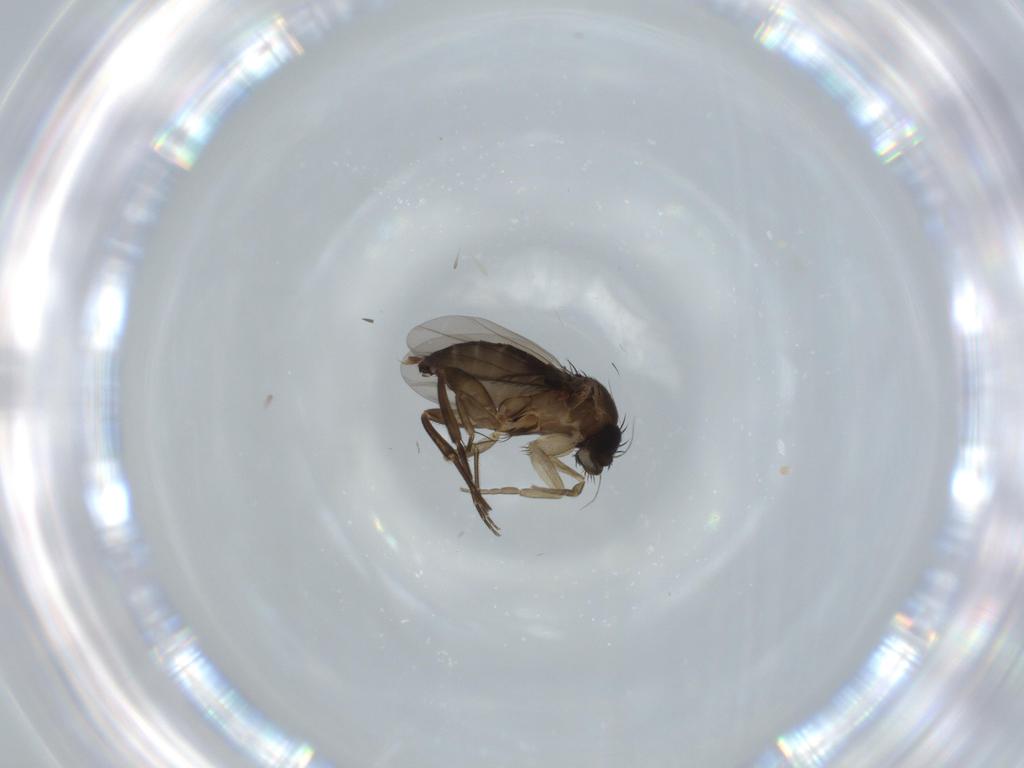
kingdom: Animalia
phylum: Arthropoda
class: Insecta
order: Diptera
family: Phoridae
